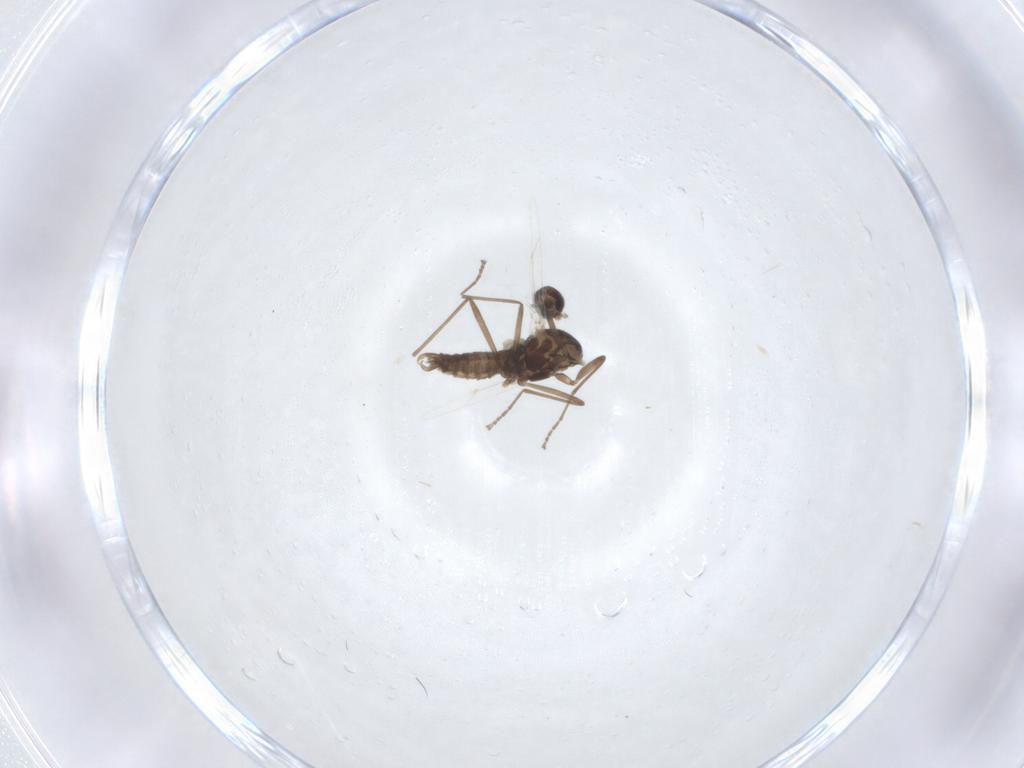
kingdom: Animalia
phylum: Arthropoda
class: Insecta
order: Diptera
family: Cecidomyiidae
